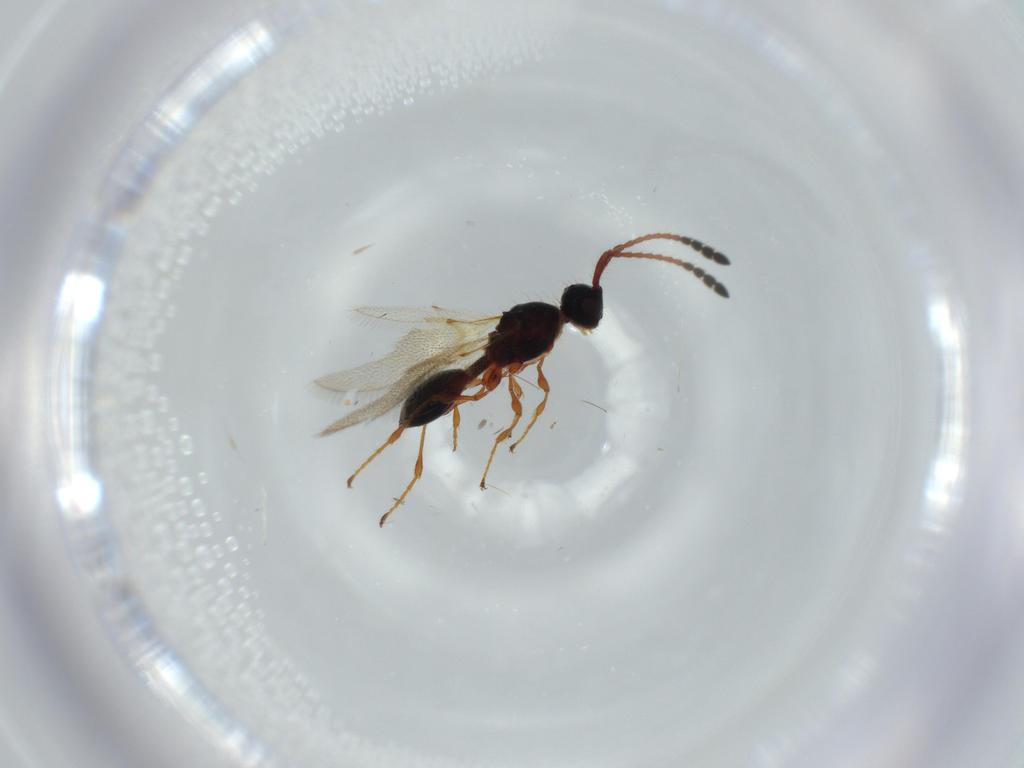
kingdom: Animalia
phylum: Arthropoda
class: Insecta
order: Hymenoptera
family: Diapriidae
